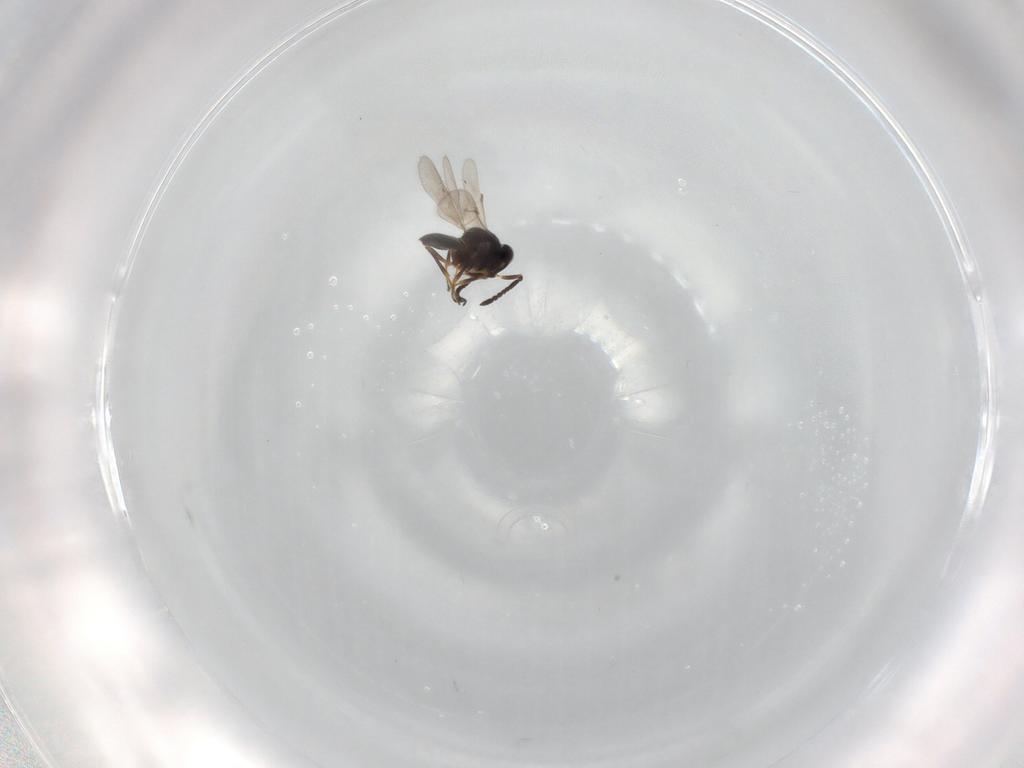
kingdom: Animalia
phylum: Arthropoda
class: Insecta
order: Hymenoptera
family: Scelionidae
